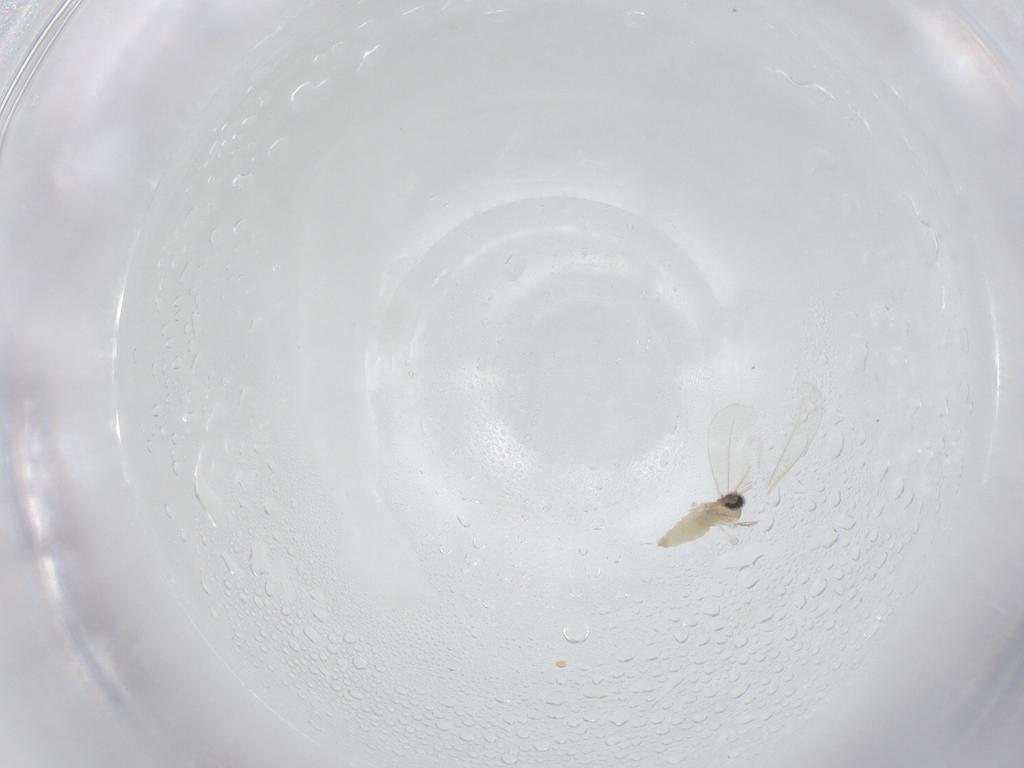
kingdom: Animalia
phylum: Arthropoda
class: Insecta
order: Diptera
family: Cecidomyiidae
